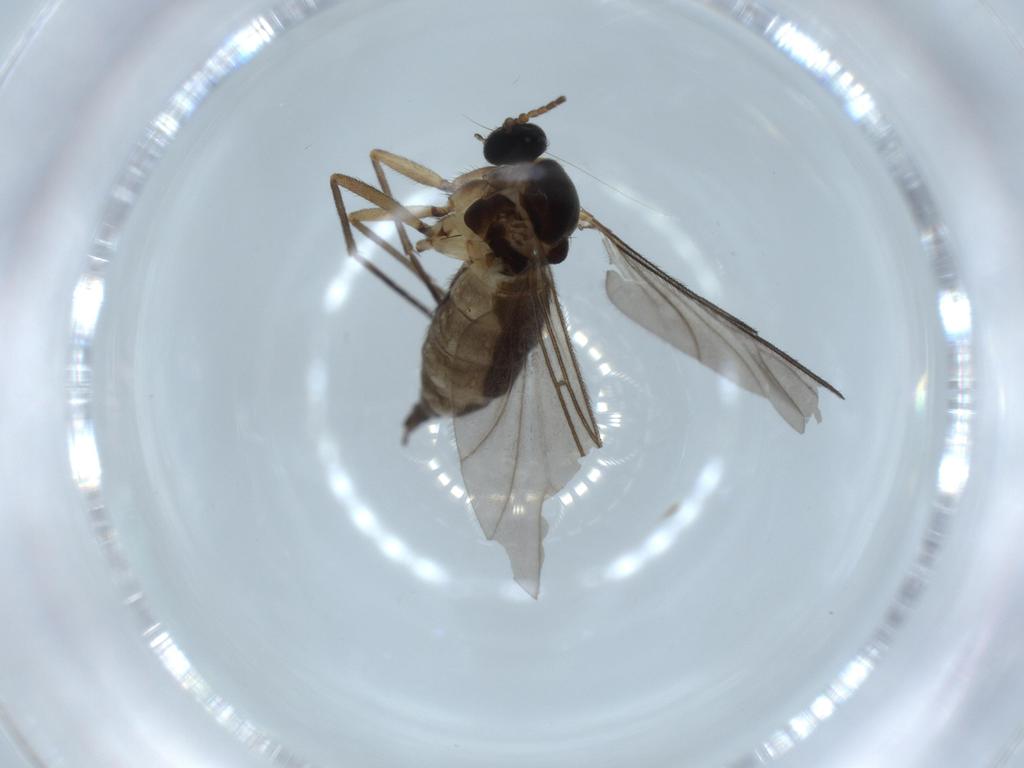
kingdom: Animalia
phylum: Arthropoda
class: Insecta
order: Diptera
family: Sciaridae
